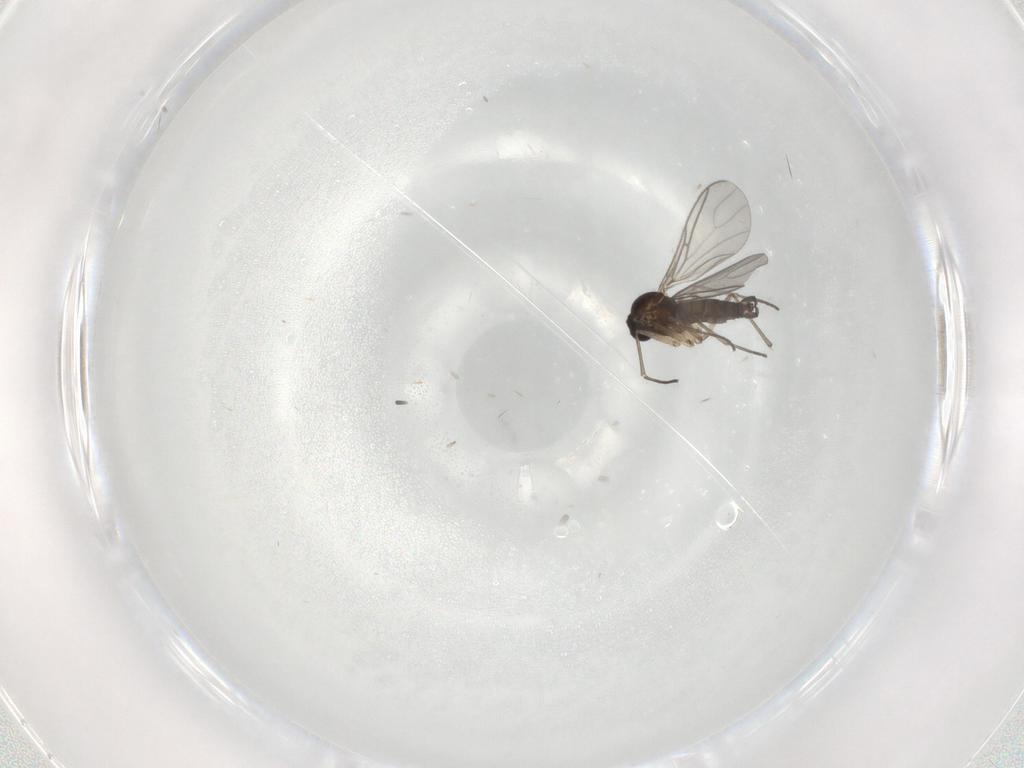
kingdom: Animalia
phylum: Arthropoda
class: Insecta
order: Diptera
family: Sciaridae
